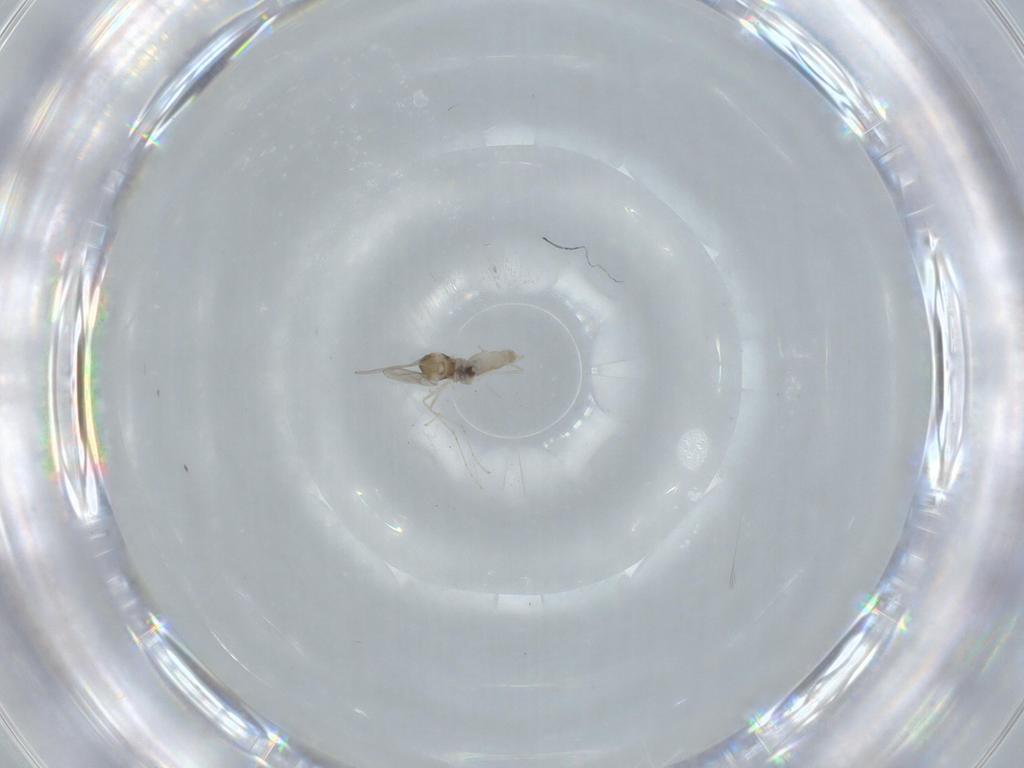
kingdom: Animalia
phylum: Arthropoda
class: Insecta
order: Diptera
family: Cecidomyiidae
